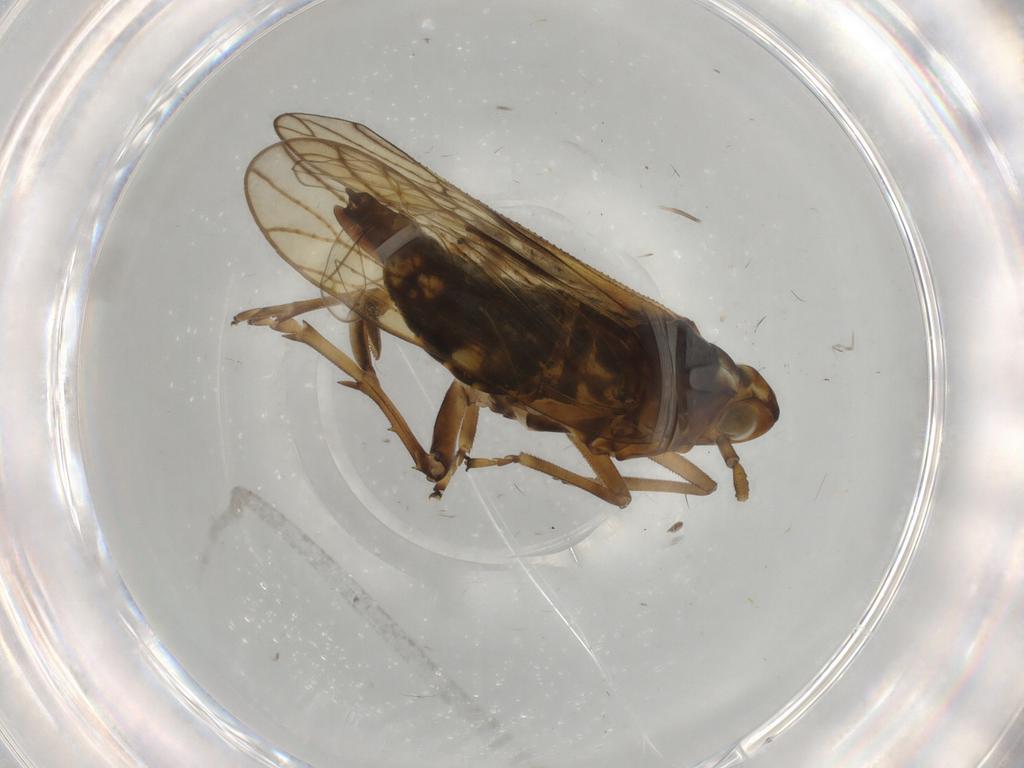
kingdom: Animalia
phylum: Arthropoda
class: Insecta
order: Hemiptera
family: Delphacidae
